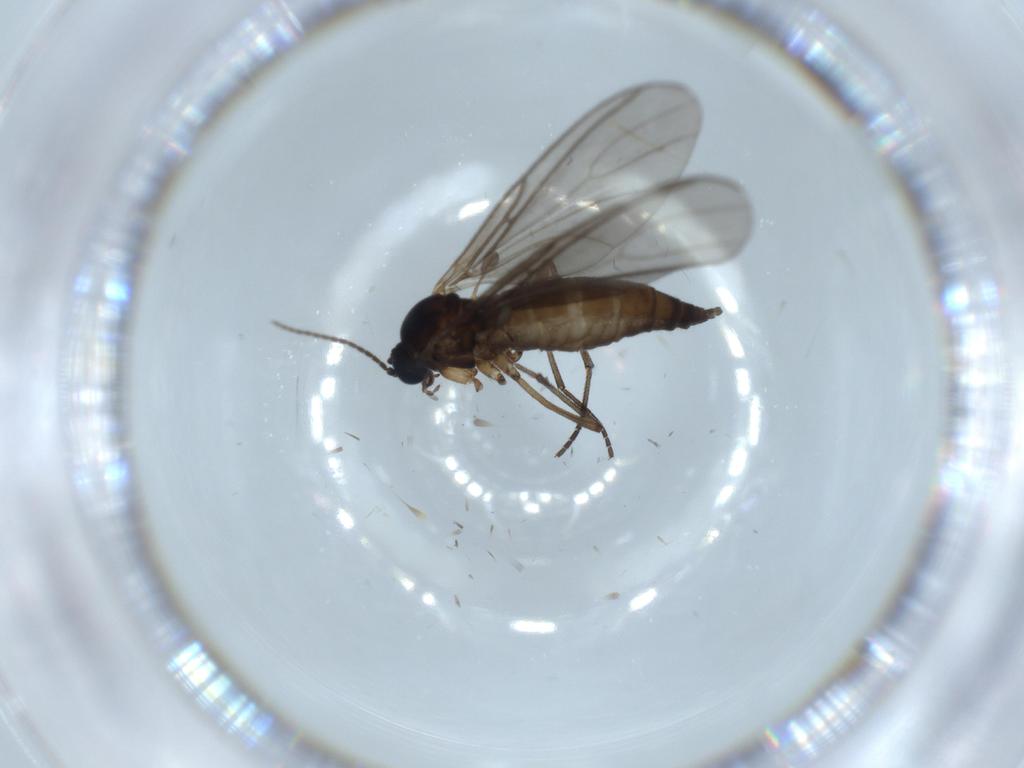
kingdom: Animalia
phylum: Arthropoda
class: Insecta
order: Diptera
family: Sciaridae
